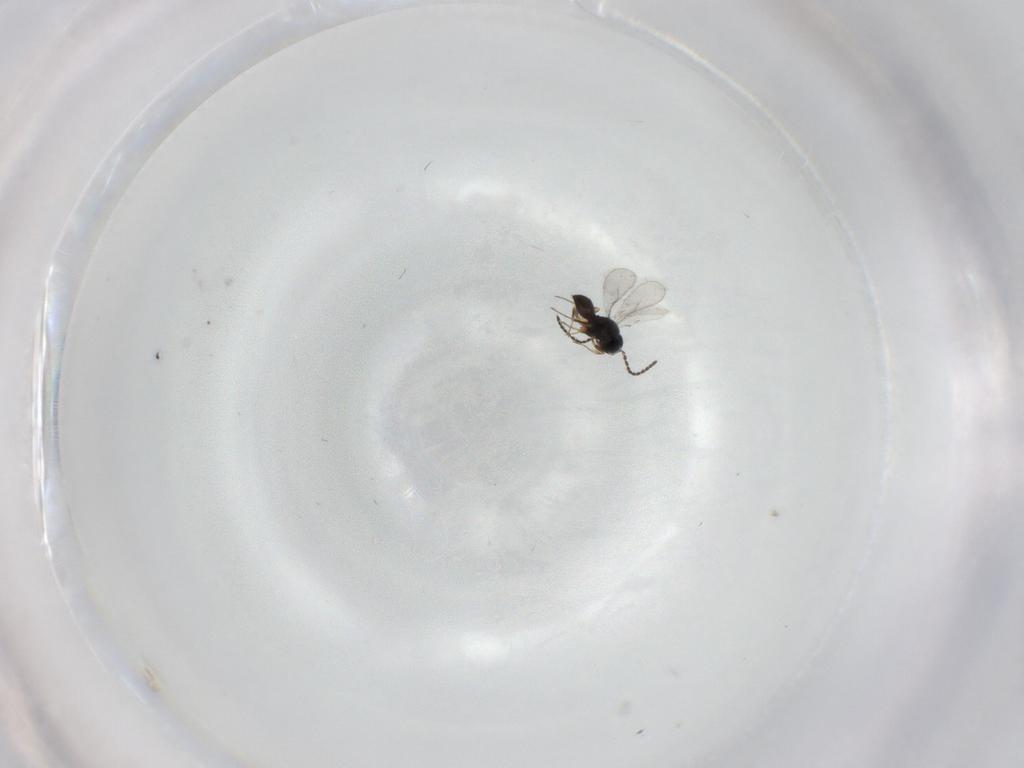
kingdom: Animalia
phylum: Arthropoda
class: Insecta
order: Hymenoptera
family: Scelionidae
